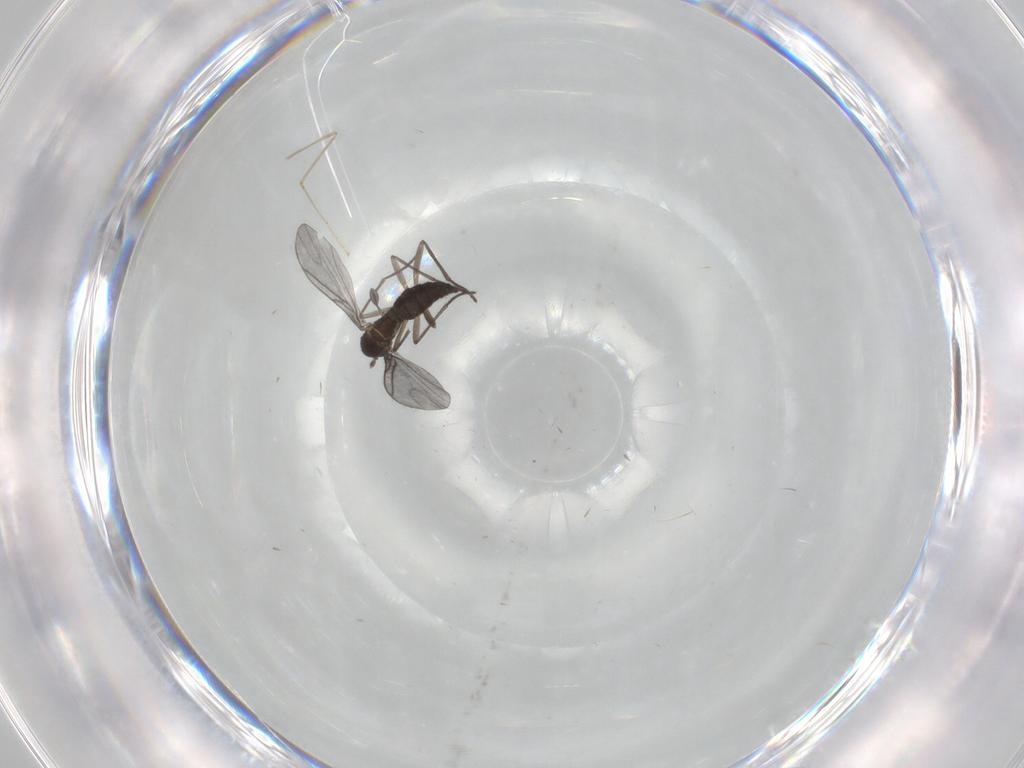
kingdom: Animalia
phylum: Arthropoda
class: Insecta
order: Diptera
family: Cecidomyiidae
